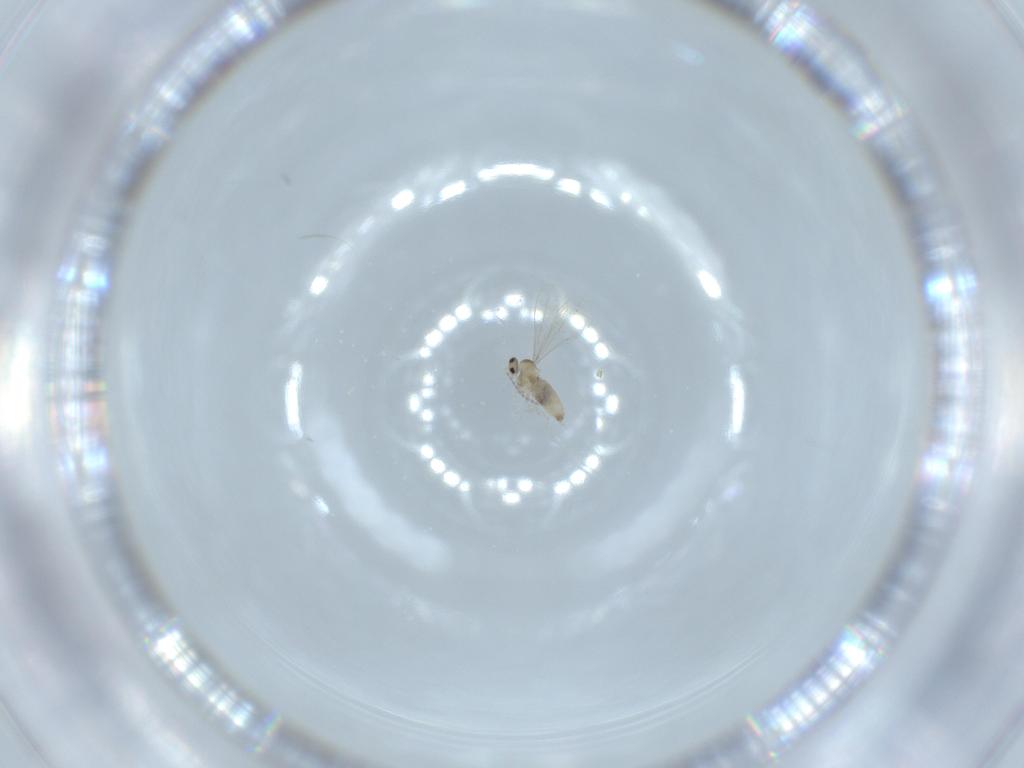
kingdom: Animalia
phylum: Arthropoda
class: Insecta
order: Diptera
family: Cecidomyiidae
